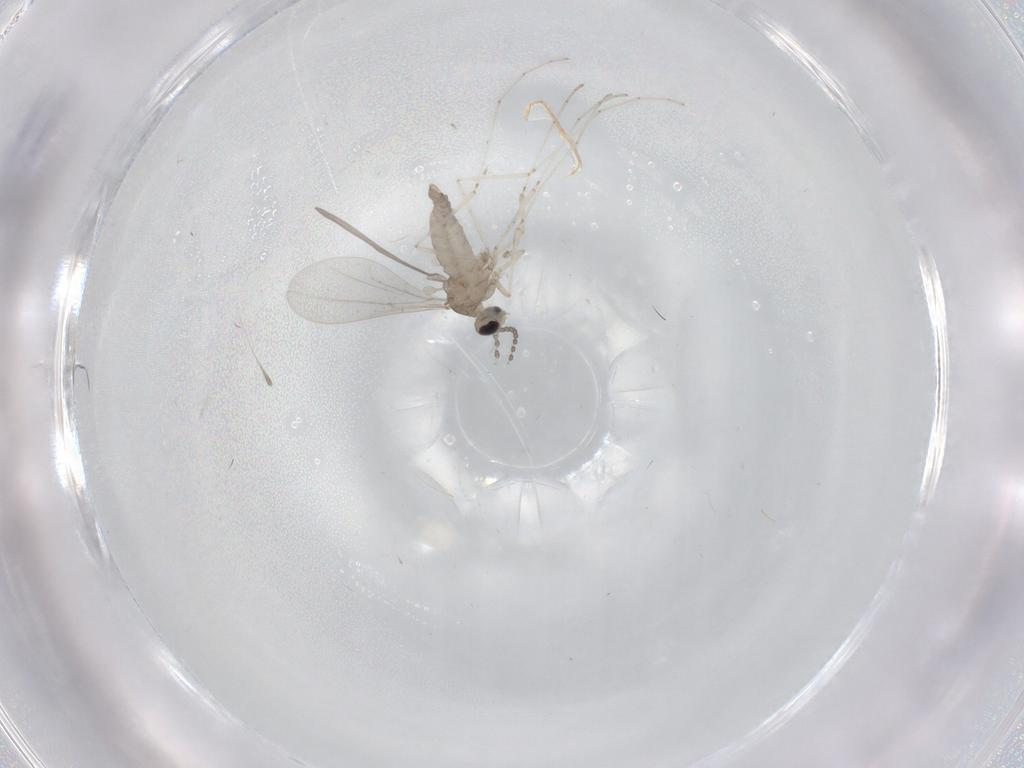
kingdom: Animalia
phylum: Arthropoda
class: Insecta
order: Diptera
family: Cecidomyiidae
